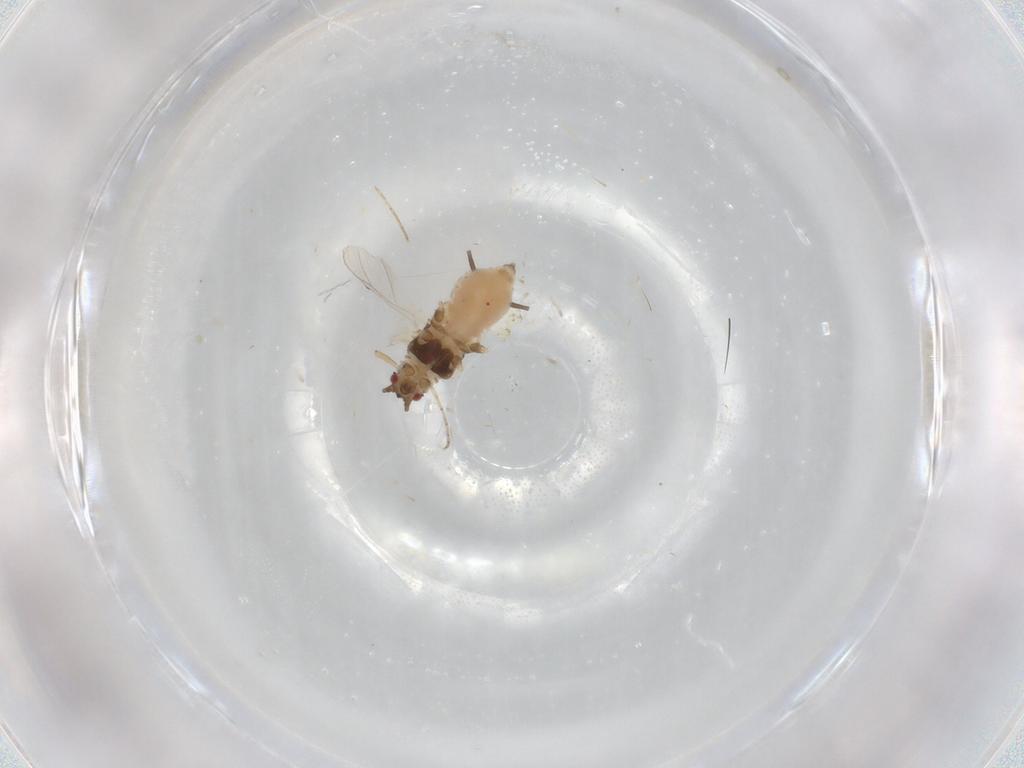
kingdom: Animalia
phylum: Arthropoda
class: Insecta
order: Hemiptera
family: Aphididae
